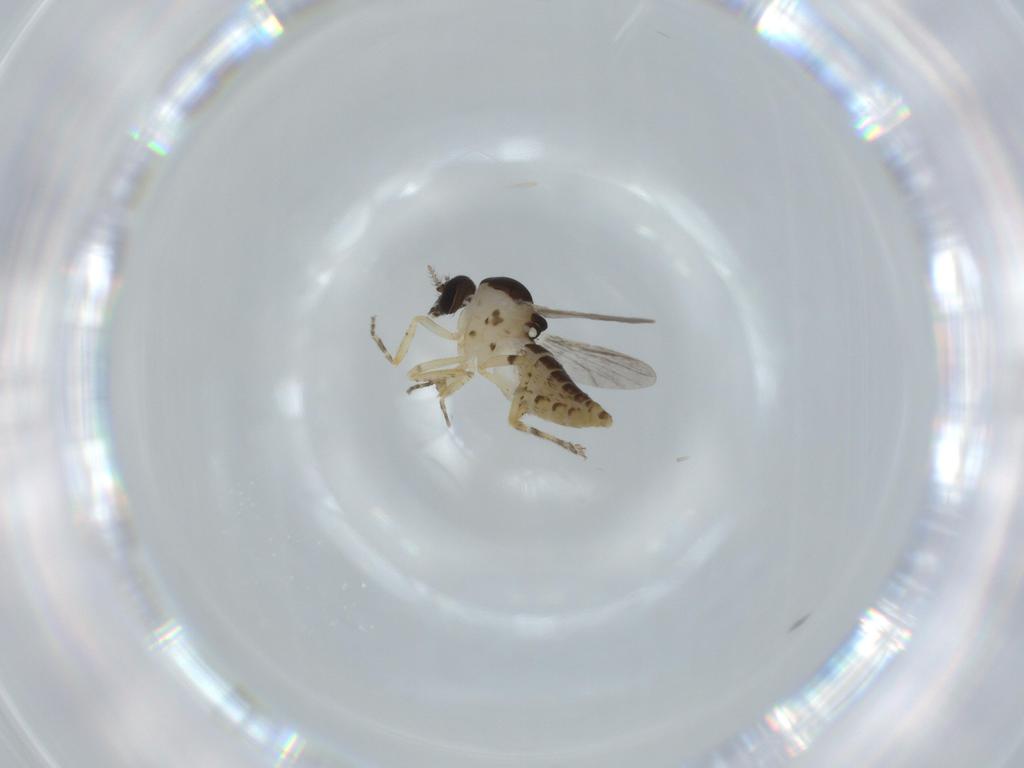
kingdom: Animalia
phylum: Arthropoda
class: Insecta
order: Diptera
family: Ceratopogonidae
